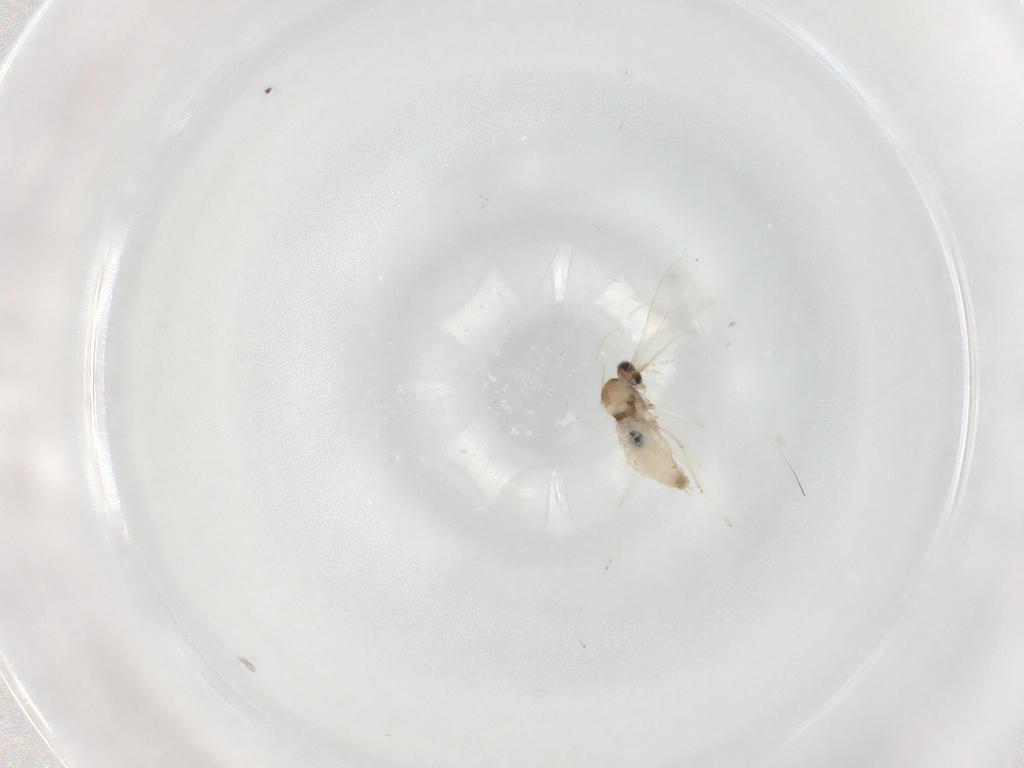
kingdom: Animalia
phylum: Arthropoda
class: Insecta
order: Diptera
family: Cecidomyiidae
